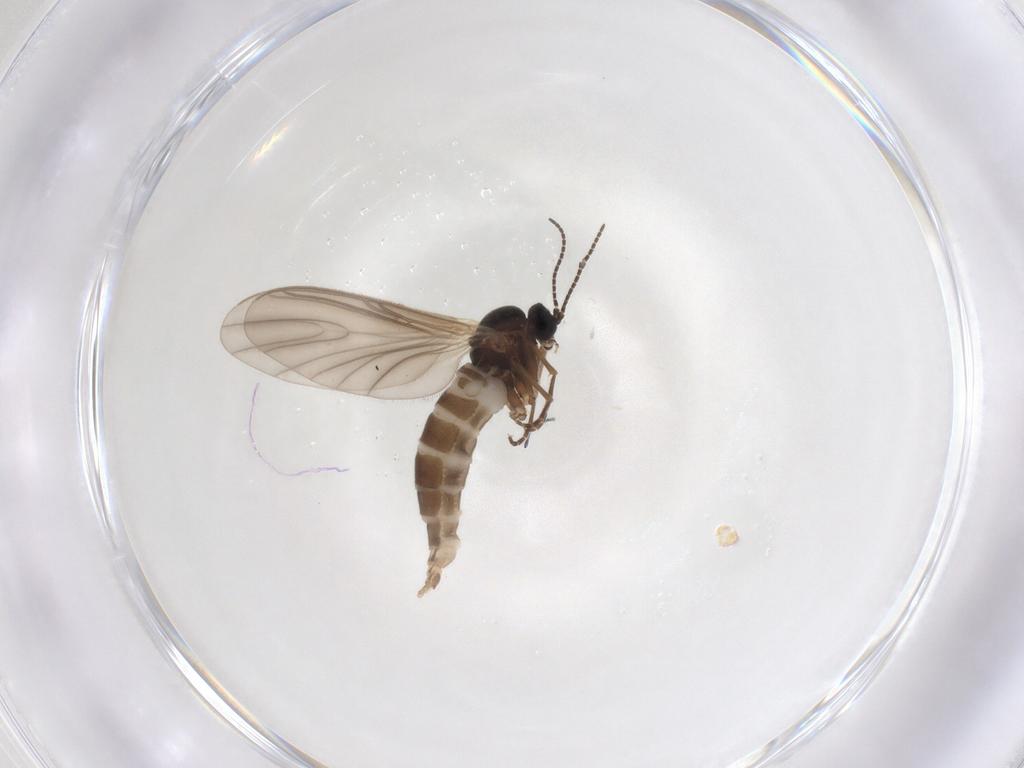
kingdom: Animalia
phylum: Arthropoda
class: Insecta
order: Diptera
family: Sciaridae
